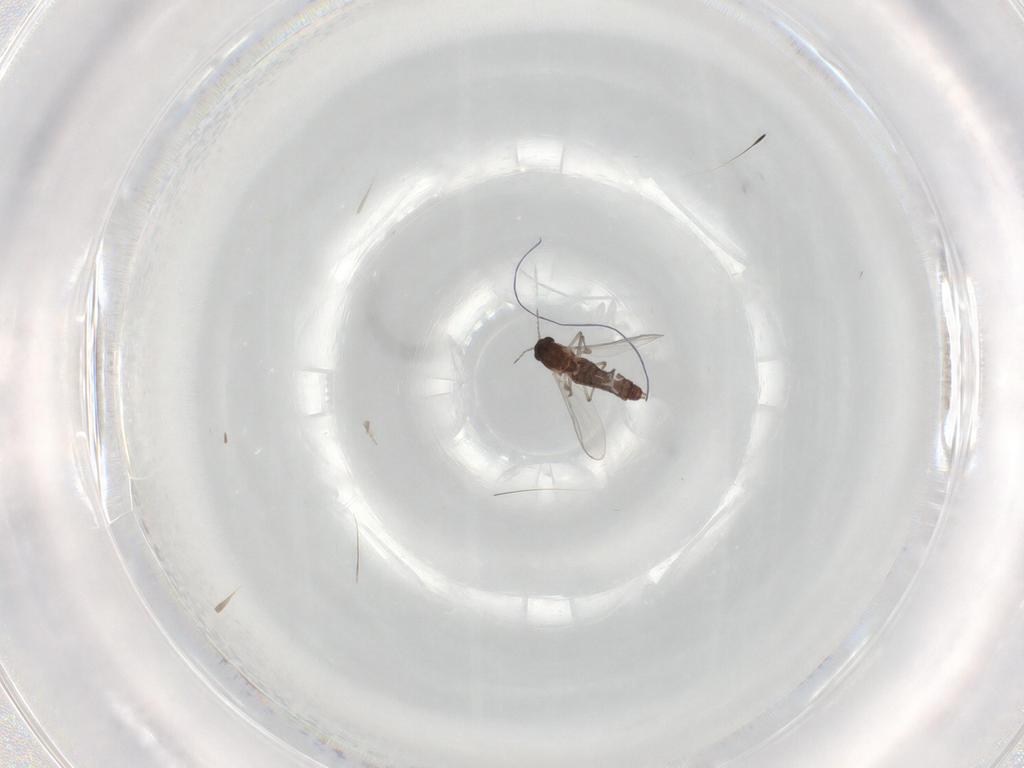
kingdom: Animalia
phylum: Arthropoda
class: Insecta
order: Diptera
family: Chironomidae
